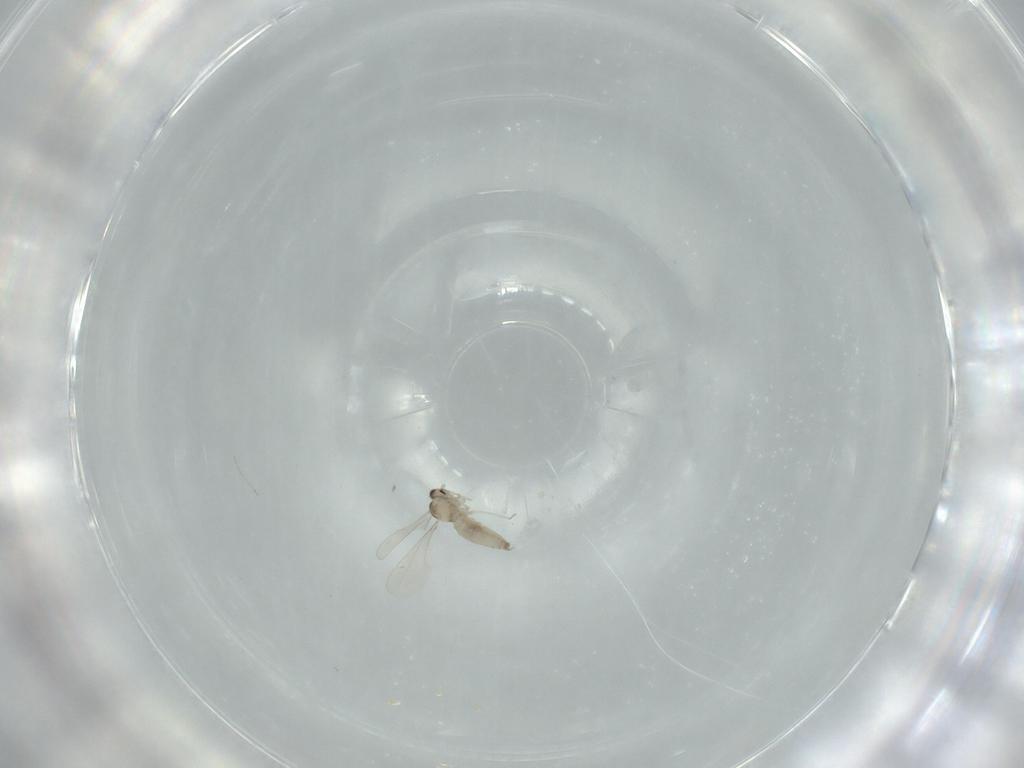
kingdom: Animalia
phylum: Arthropoda
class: Insecta
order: Diptera
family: Cecidomyiidae
